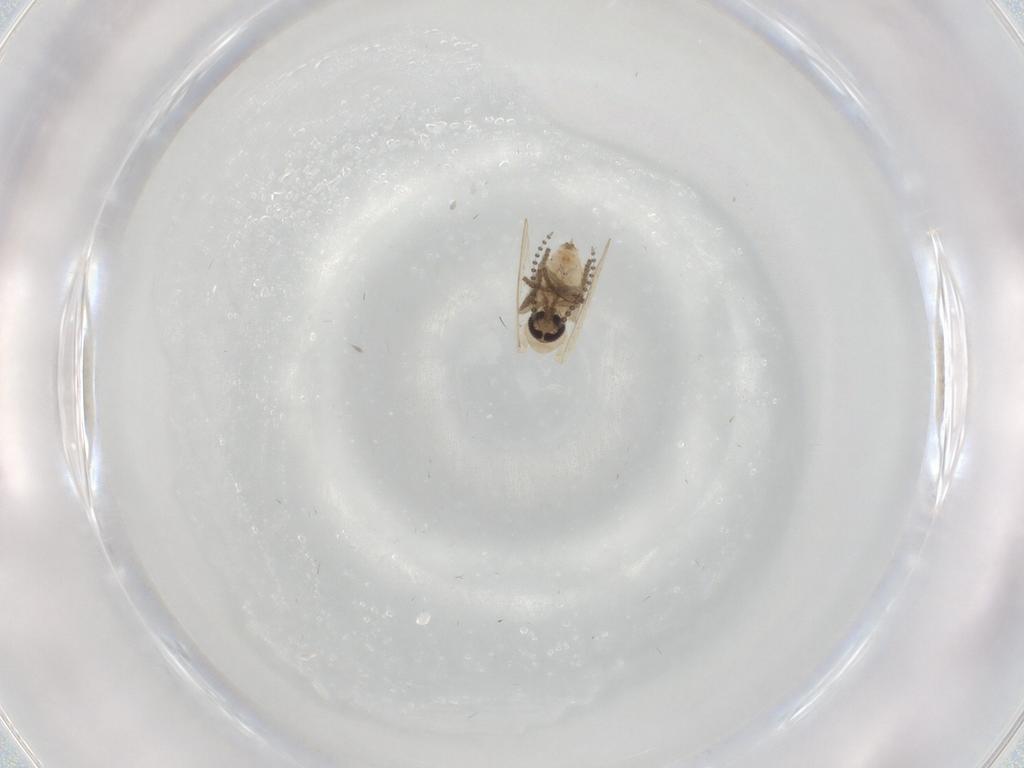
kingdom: Animalia
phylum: Arthropoda
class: Insecta
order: Diptera
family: Psychodidae
